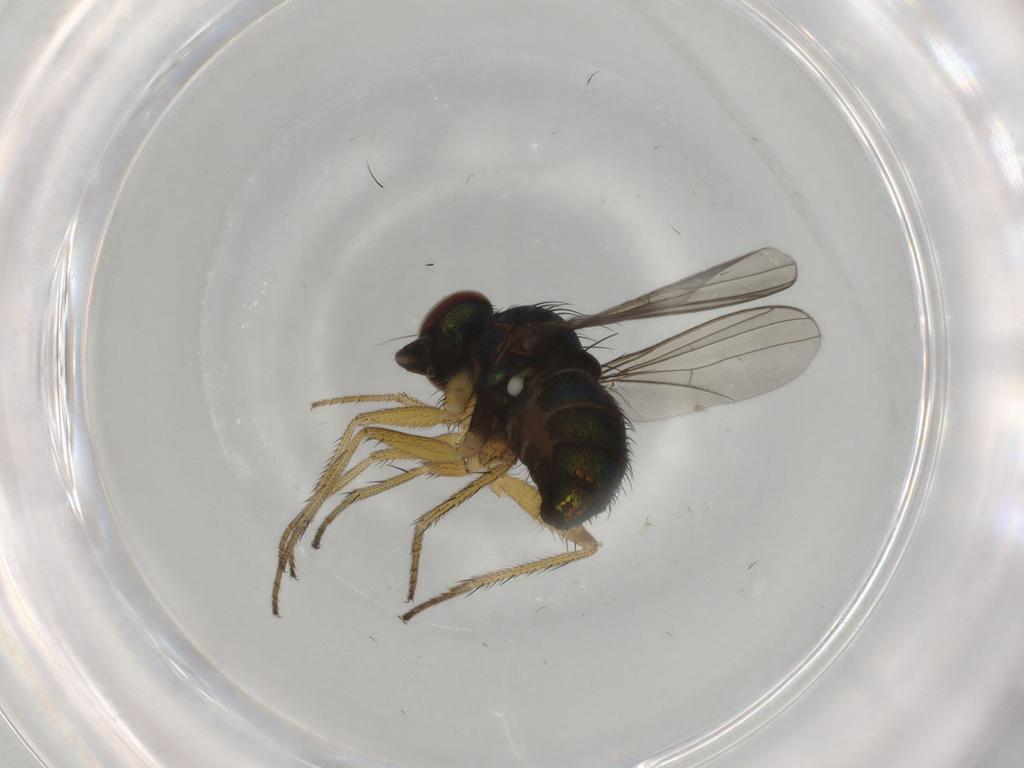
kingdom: Animalia
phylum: Arthropoda
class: Insecta
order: Diptera
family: Dolichopodidae
